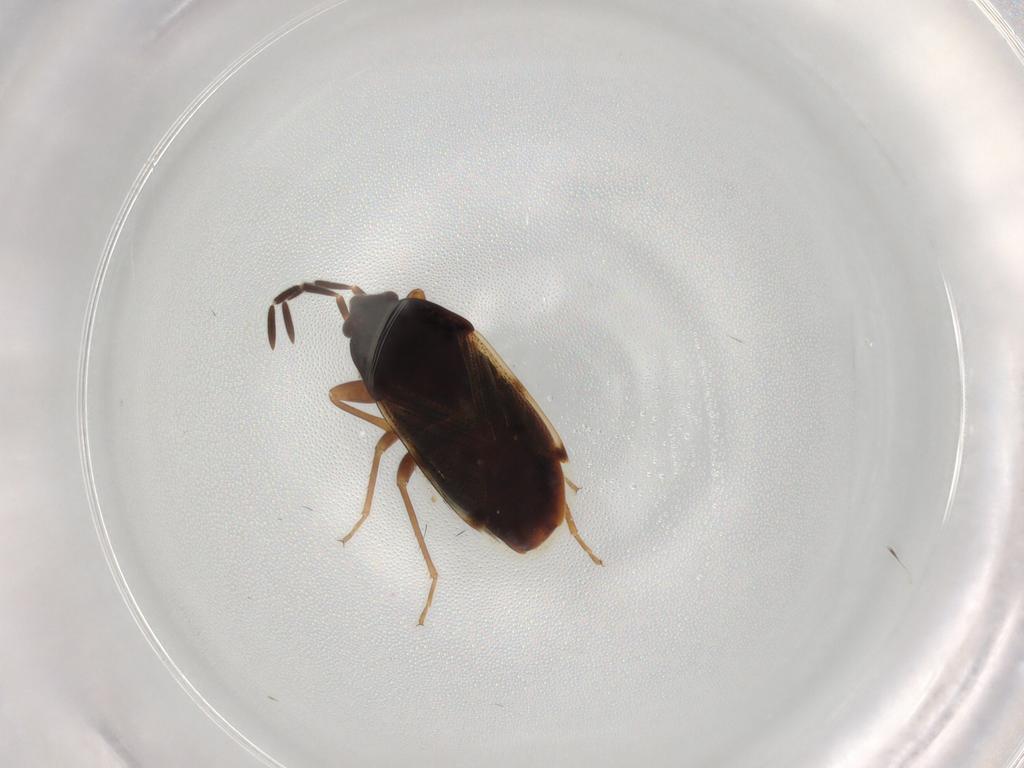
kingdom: Animalia
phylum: Arthropoda
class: Insecta
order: Hemiptera
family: Rhyparochromidae
